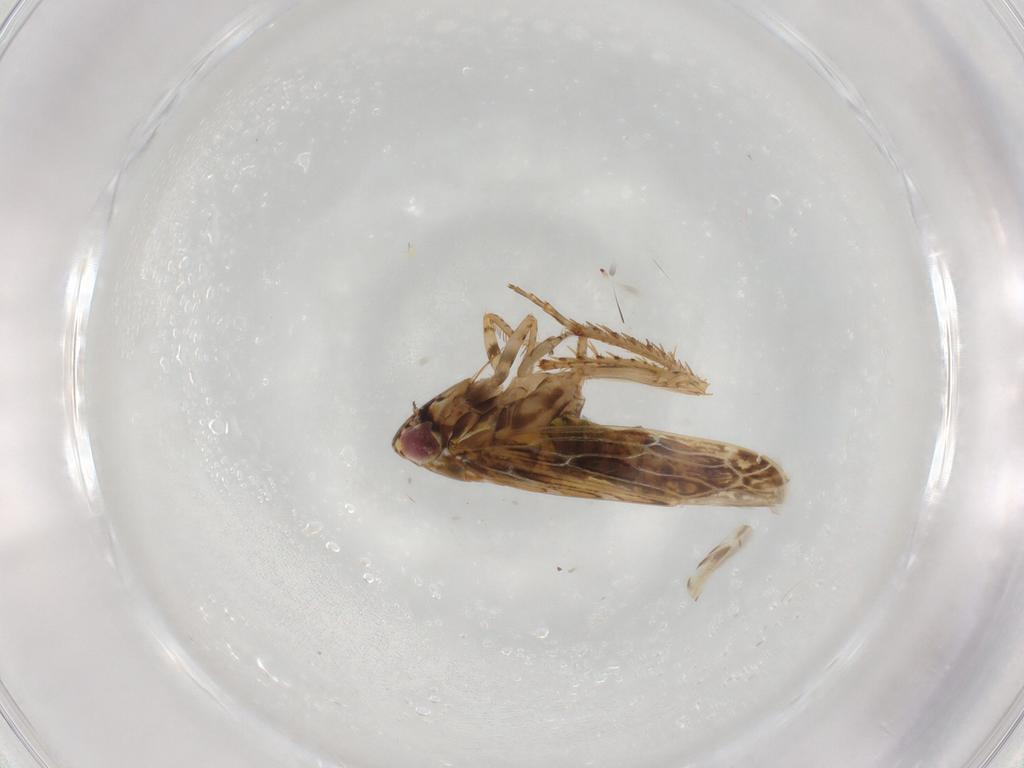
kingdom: Animalia
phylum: Arthropoda
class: Insecta
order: Hemiptera
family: Cicadellidae
